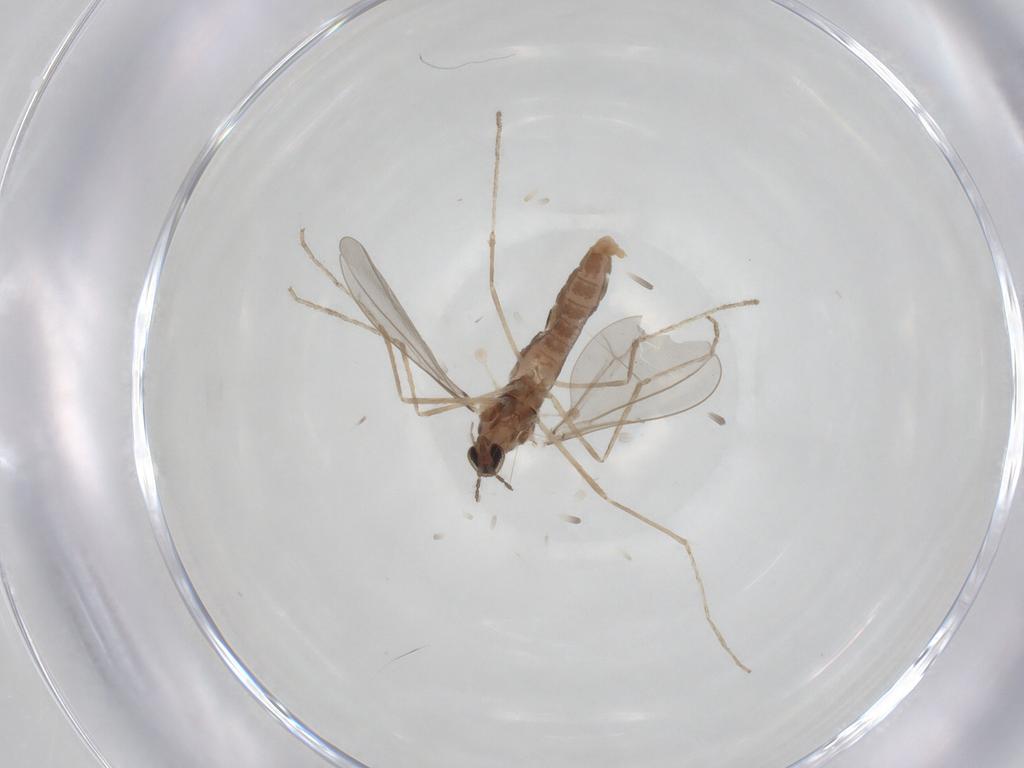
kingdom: Animalia
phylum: Arthropoda
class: Insecta
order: Diptera
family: Cecidomyiidae
